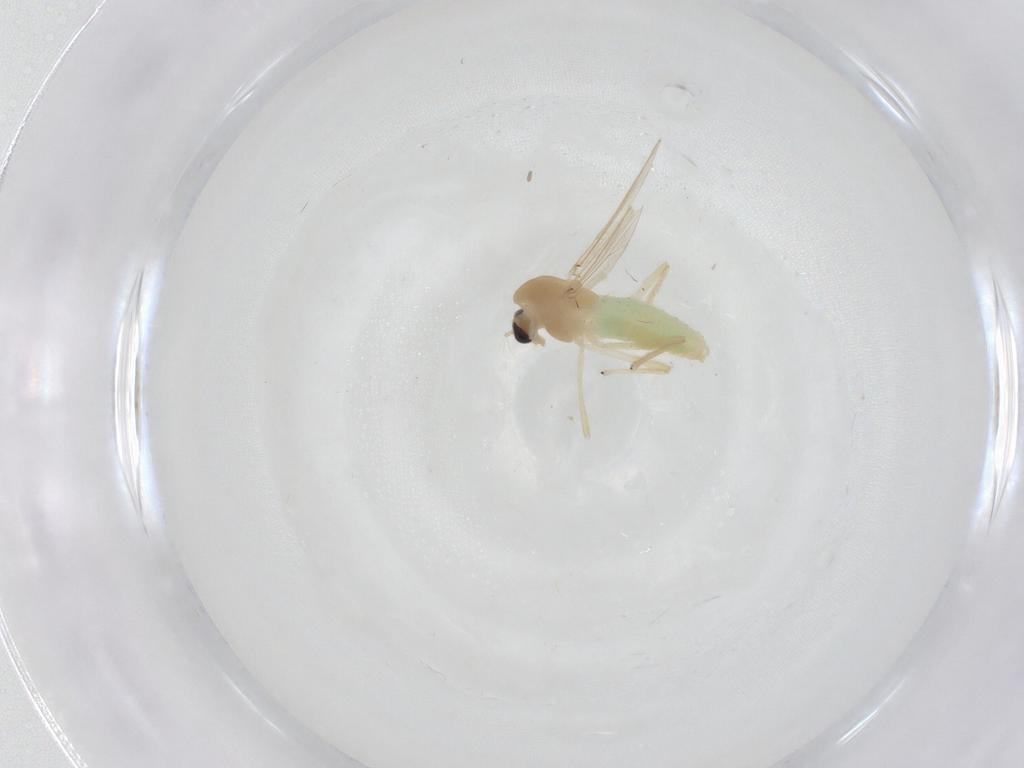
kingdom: Animalia
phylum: Arthropoda
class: Insecta
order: Diptera
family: Chironomidae
